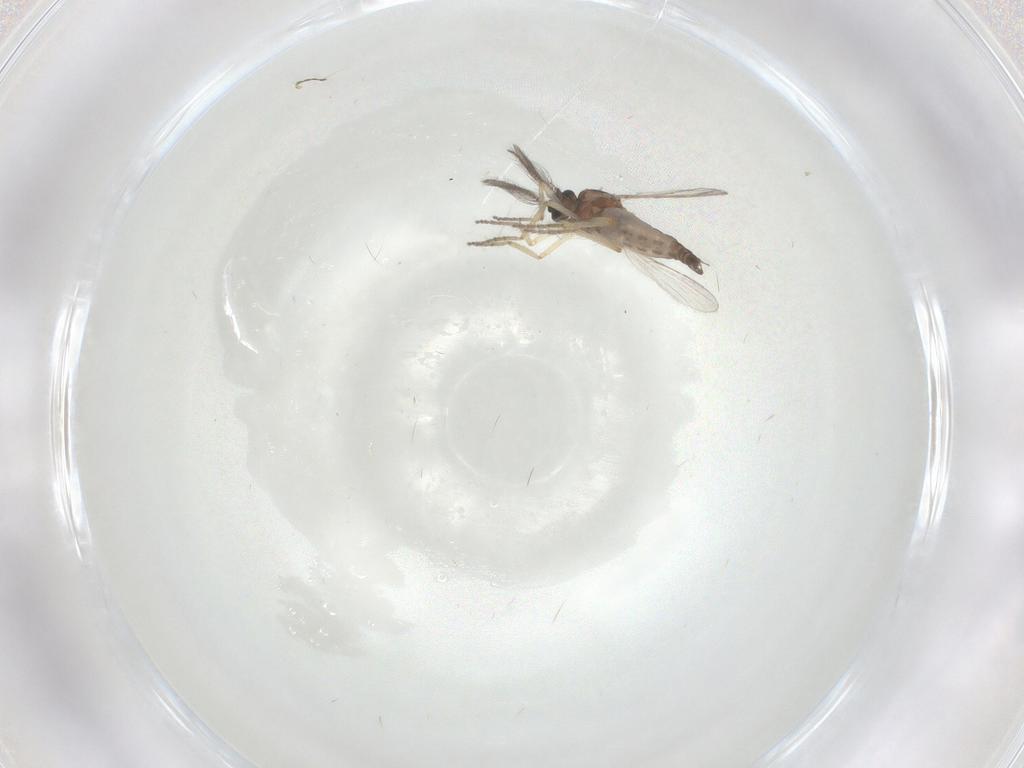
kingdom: Animalia
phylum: Arthropoda
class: Insecta
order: Diptera
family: Ceratopogonidae
